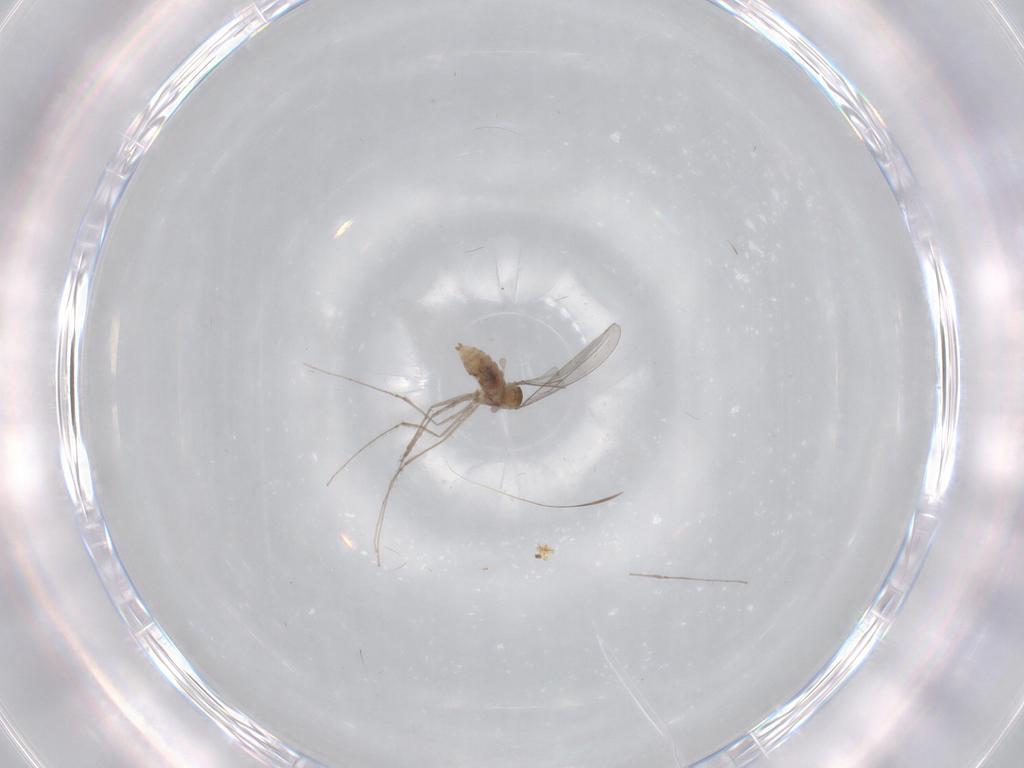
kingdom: Animalia
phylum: Arthropoda
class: Insecta
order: Diptera
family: Cecidomyiidae
